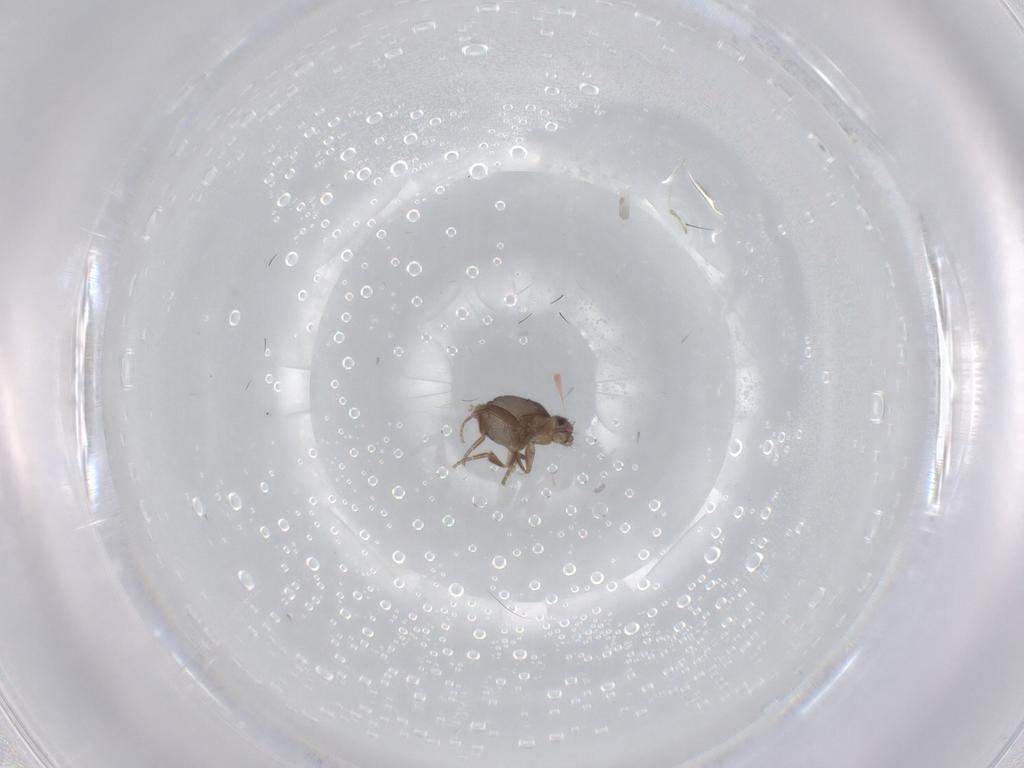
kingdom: Animalia
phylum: Arthropoda
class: Insecta
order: Diptera
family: Phoridae
